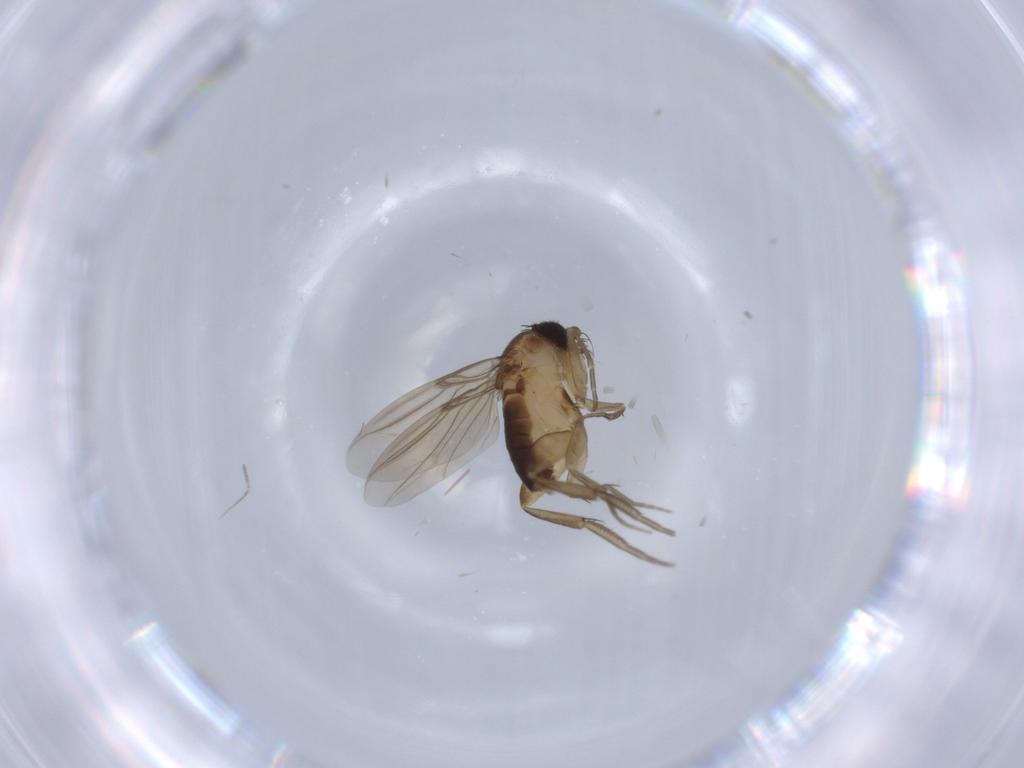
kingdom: Animalia
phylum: Arthropoda
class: Insecta
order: Diptera
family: Phoridae
